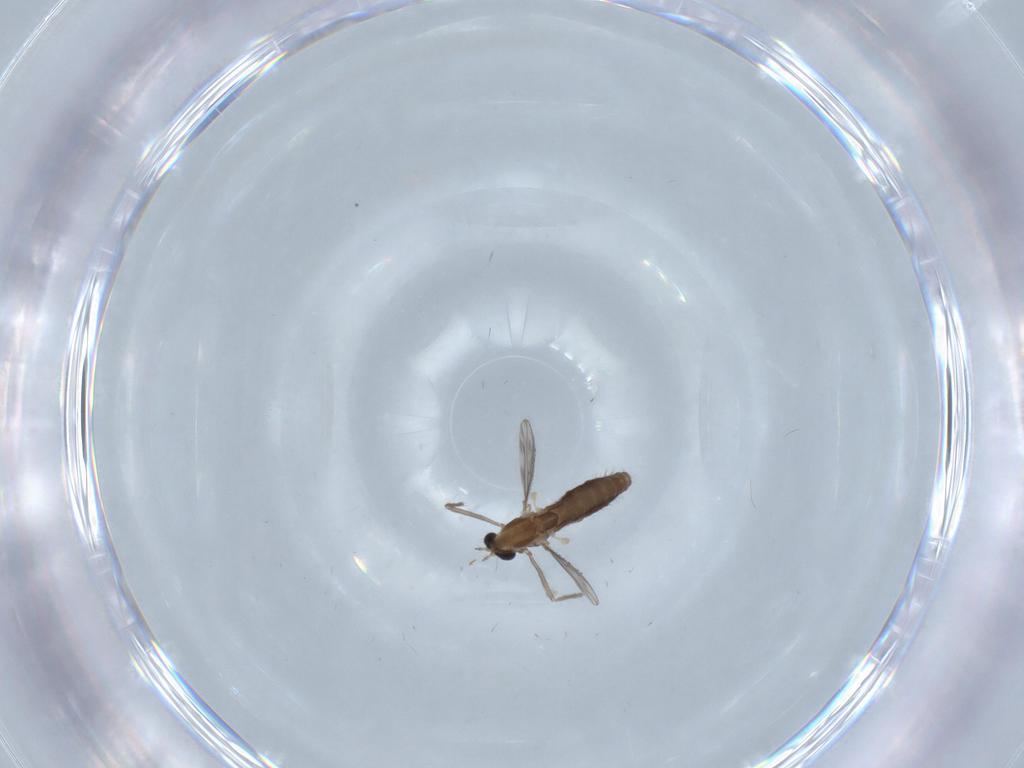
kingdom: Animalia
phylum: Arthropoda
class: Insecta
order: Diptera
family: Chironomidae
